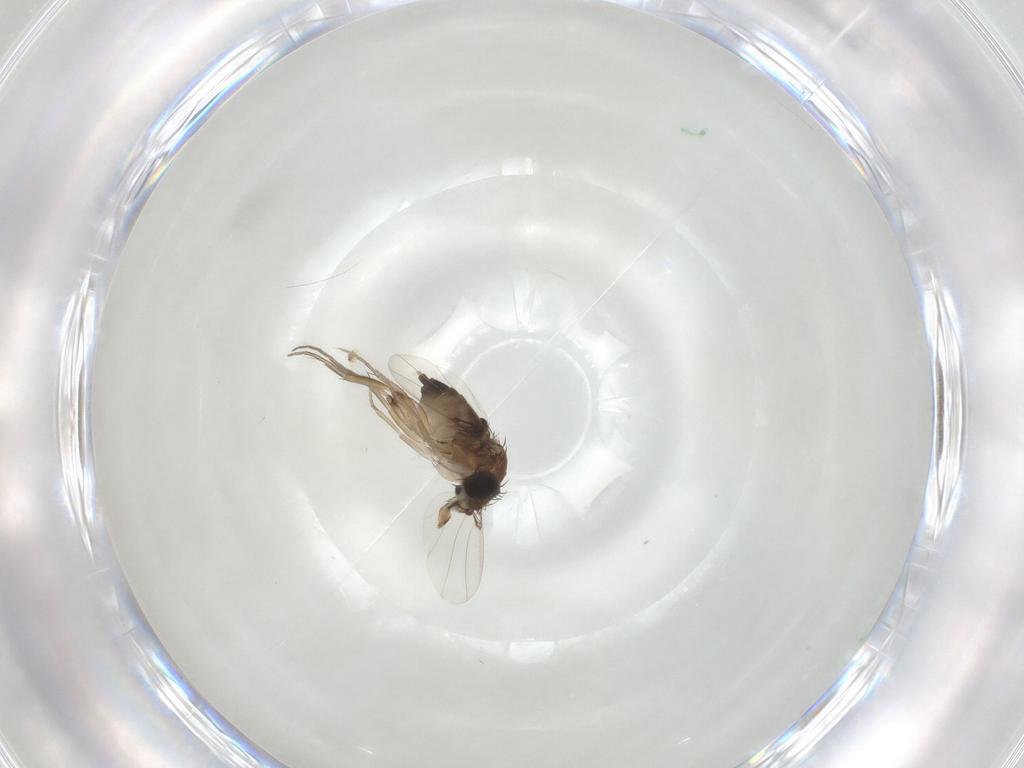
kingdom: Animalia
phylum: Arthropoda
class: Insecta
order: Diptera
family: Phoridae
